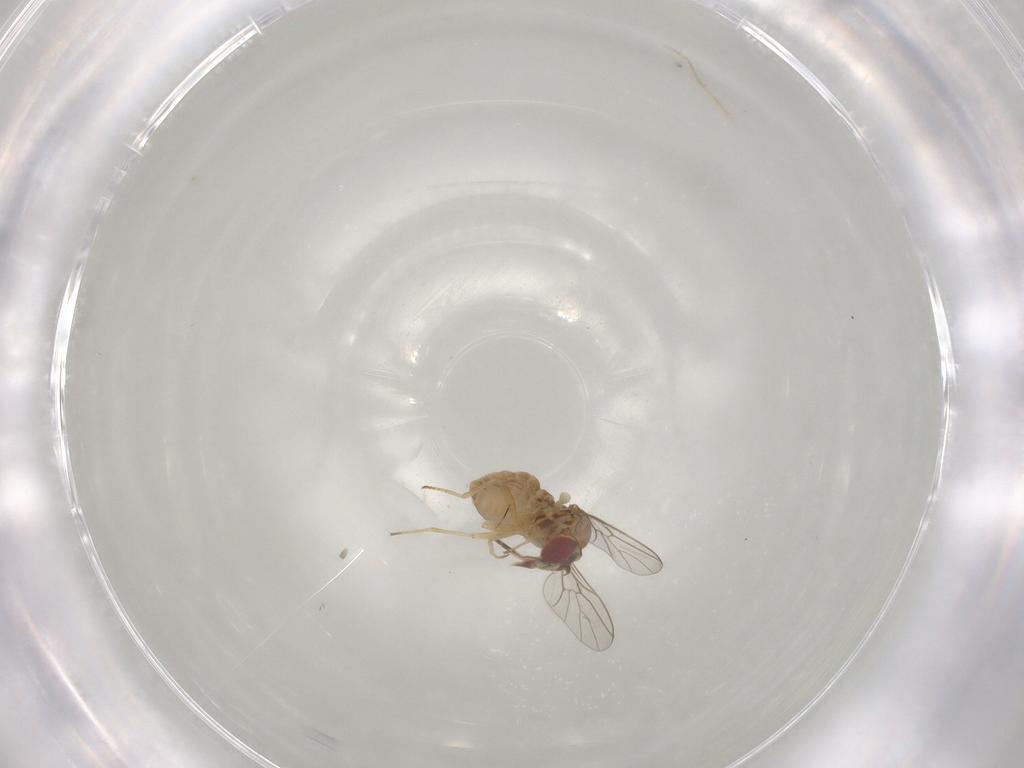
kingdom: Animalia
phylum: Arthropoda
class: Insecta
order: Diptera
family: Mythicomyiidae
